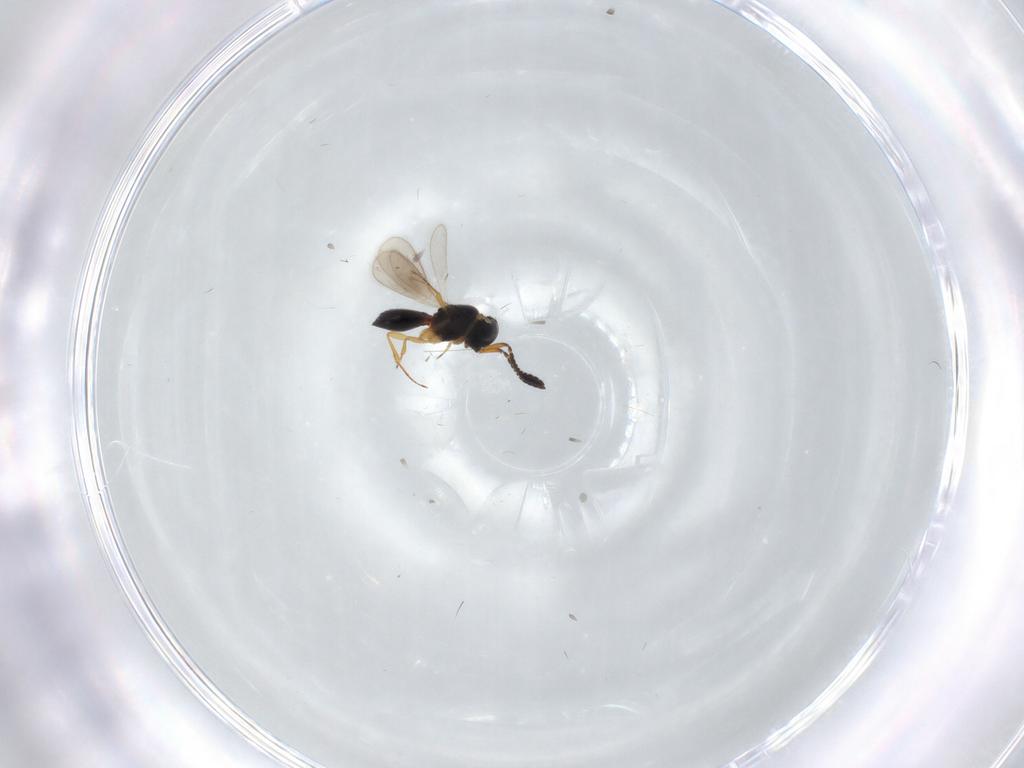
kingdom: Animalia
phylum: Arthropoda
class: Insecta
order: Hymenoptera
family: Scelionidae
